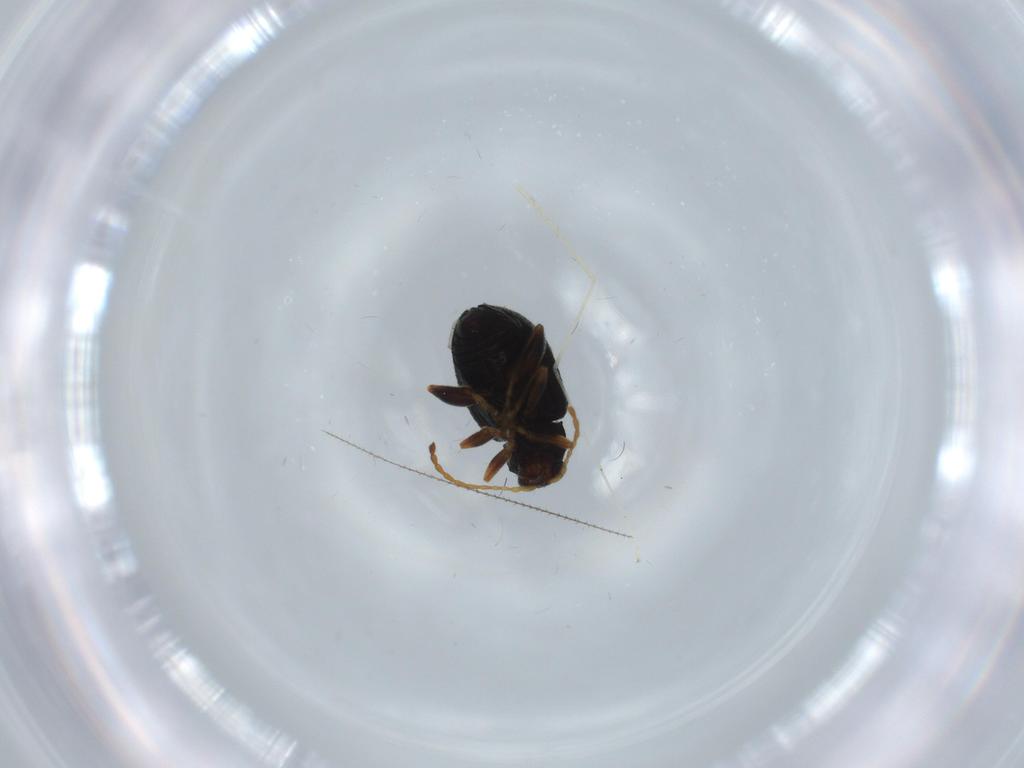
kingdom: Animalia
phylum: Arthropoda
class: Insecta
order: Coleoptera
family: Chrysomelidae
